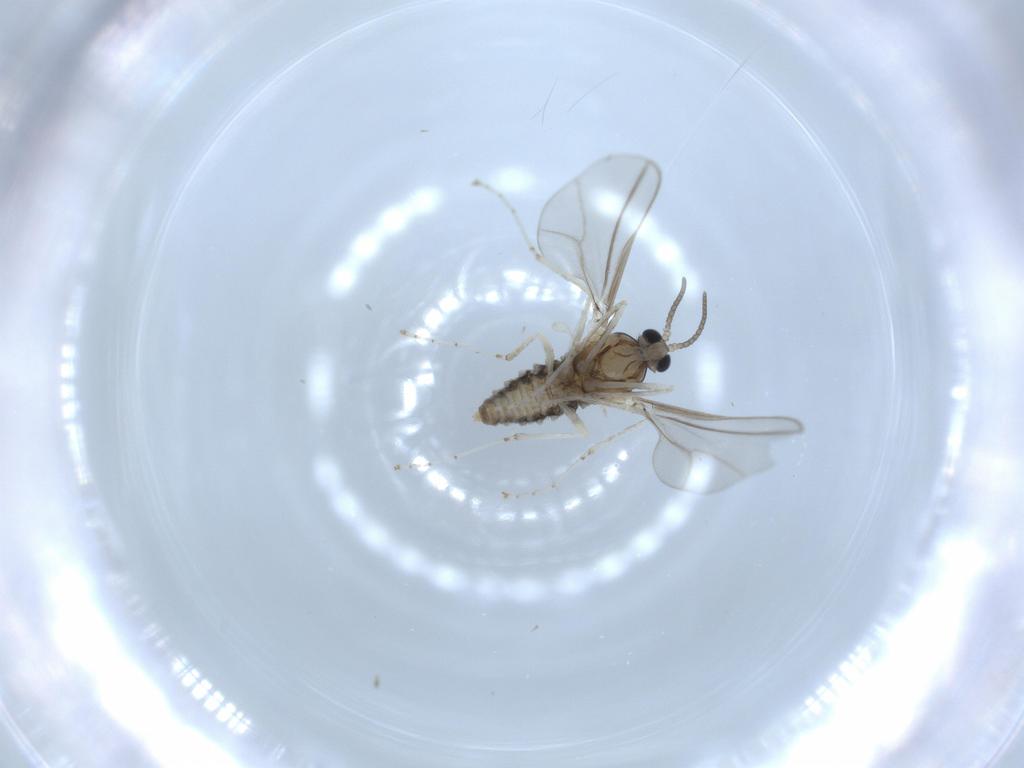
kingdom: Animalia
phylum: Arthropoda
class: Insecta
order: Diptera
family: Cecidomyiidae
